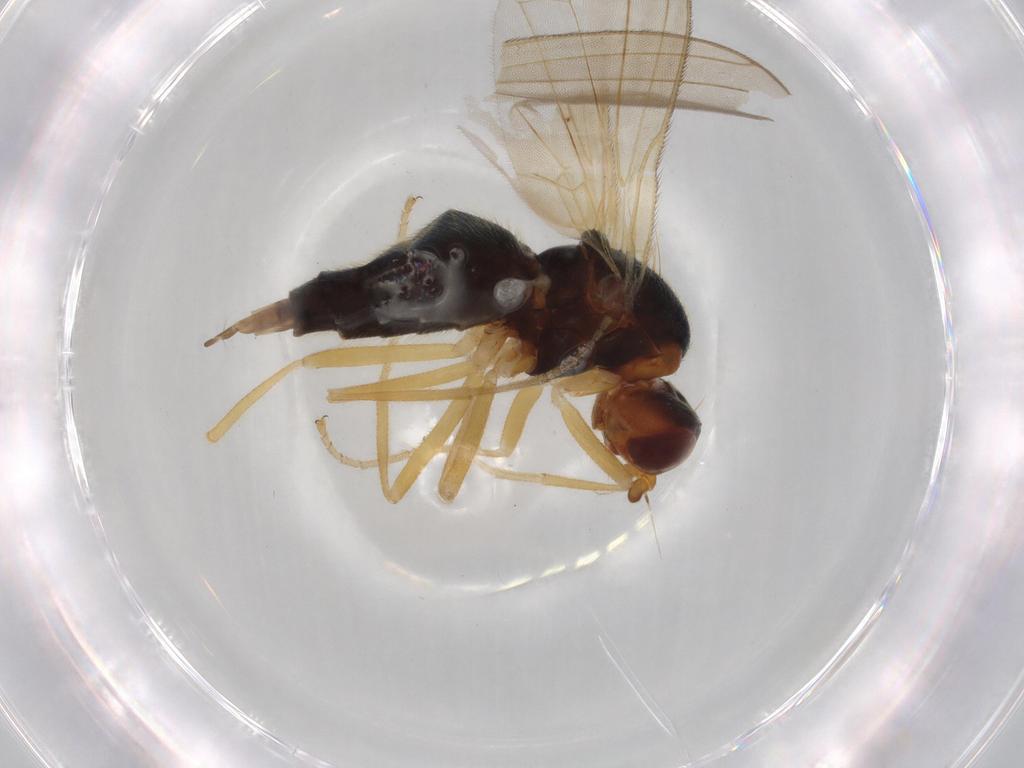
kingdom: Animalia
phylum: Arthropoda
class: Insecta
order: Diptera
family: Drosophilidae
